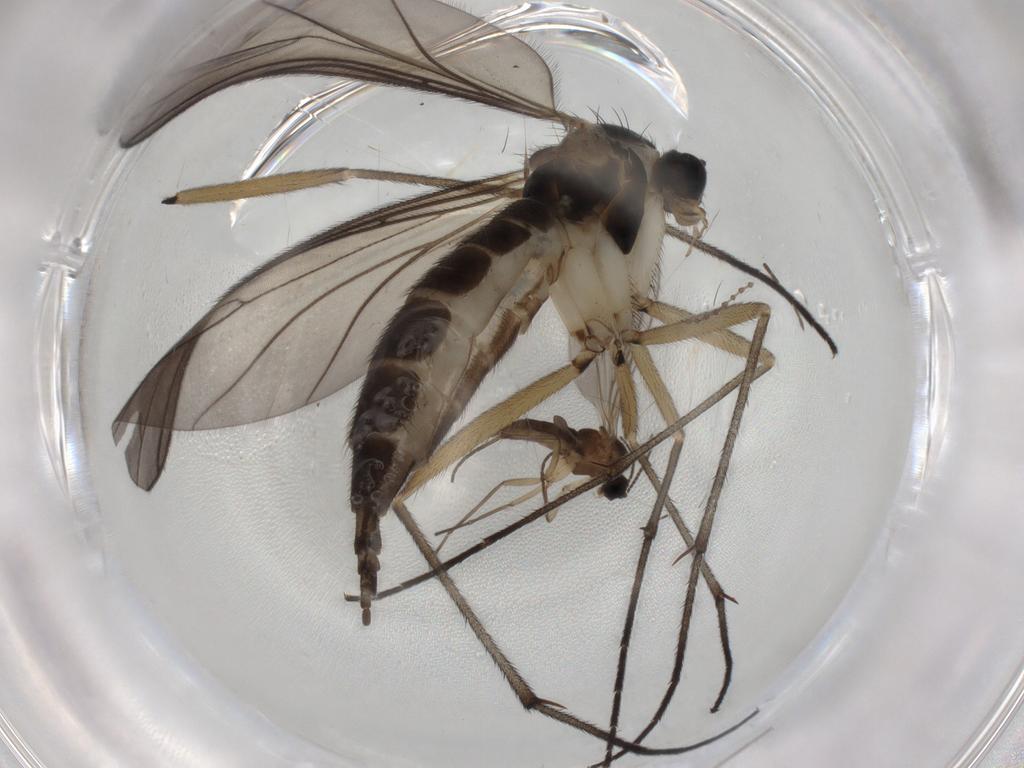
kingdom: Animalia
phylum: Arthropoda
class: Insecta
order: Diptera
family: Sciaridae
